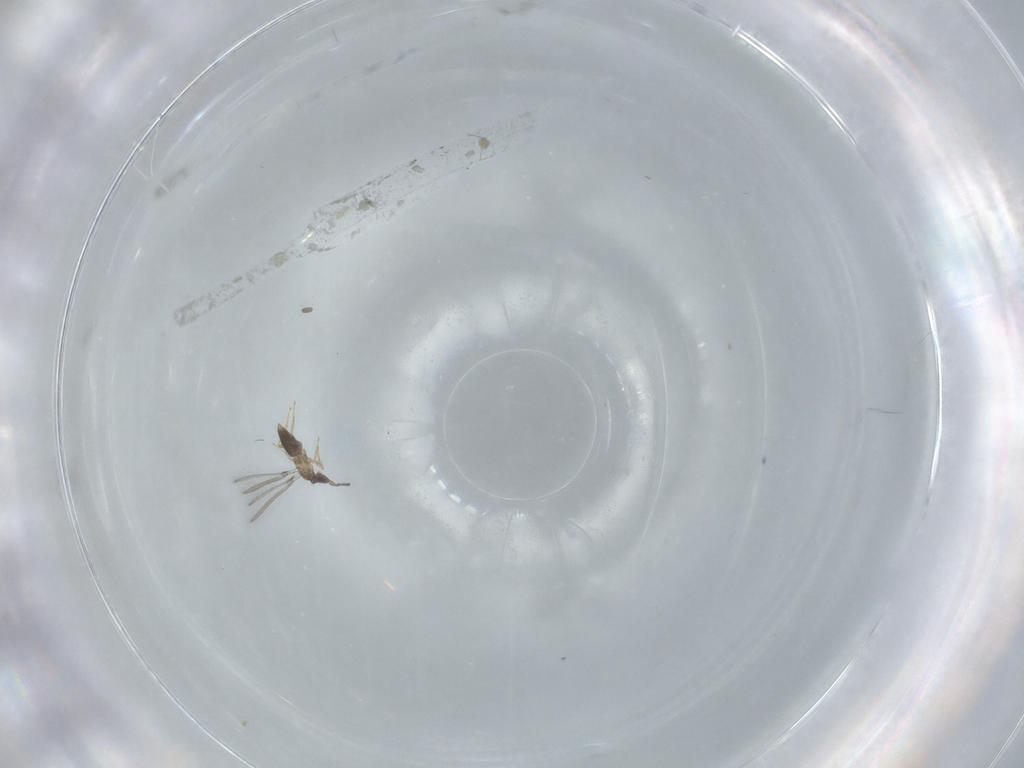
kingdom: Animalia
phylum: Arthropoda
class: Insecta
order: Hymenoptera
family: Mymaridae
